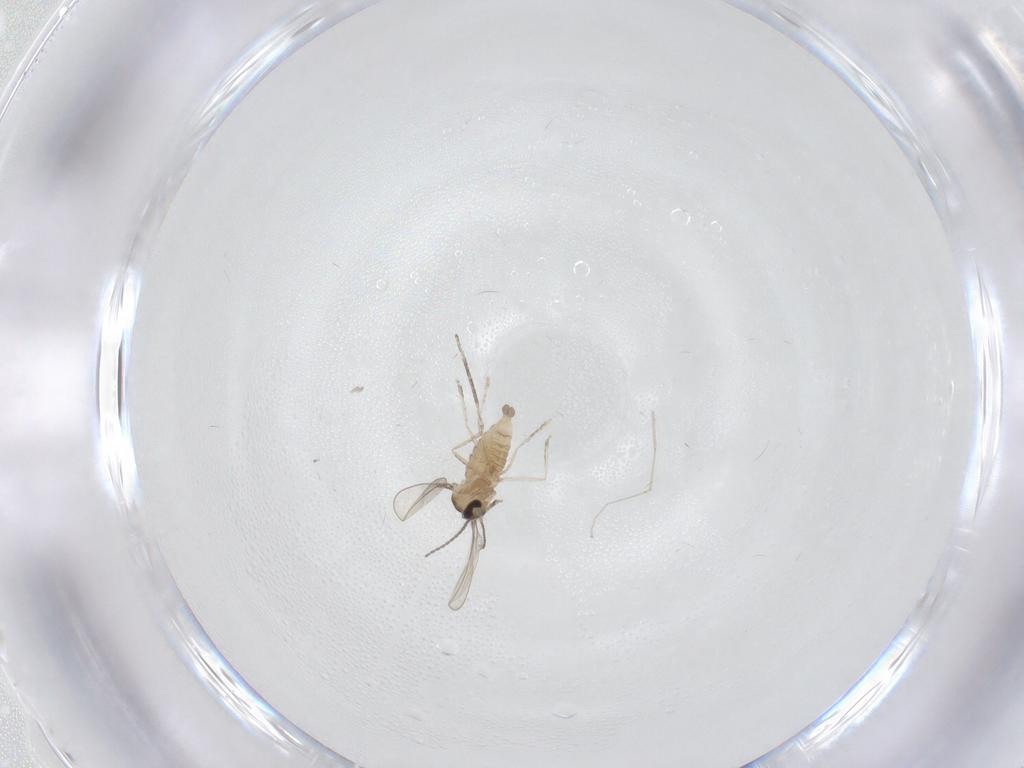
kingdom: Animalia
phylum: Arthropoda
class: Insecta
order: Diptera
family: Cecidomyiidae
